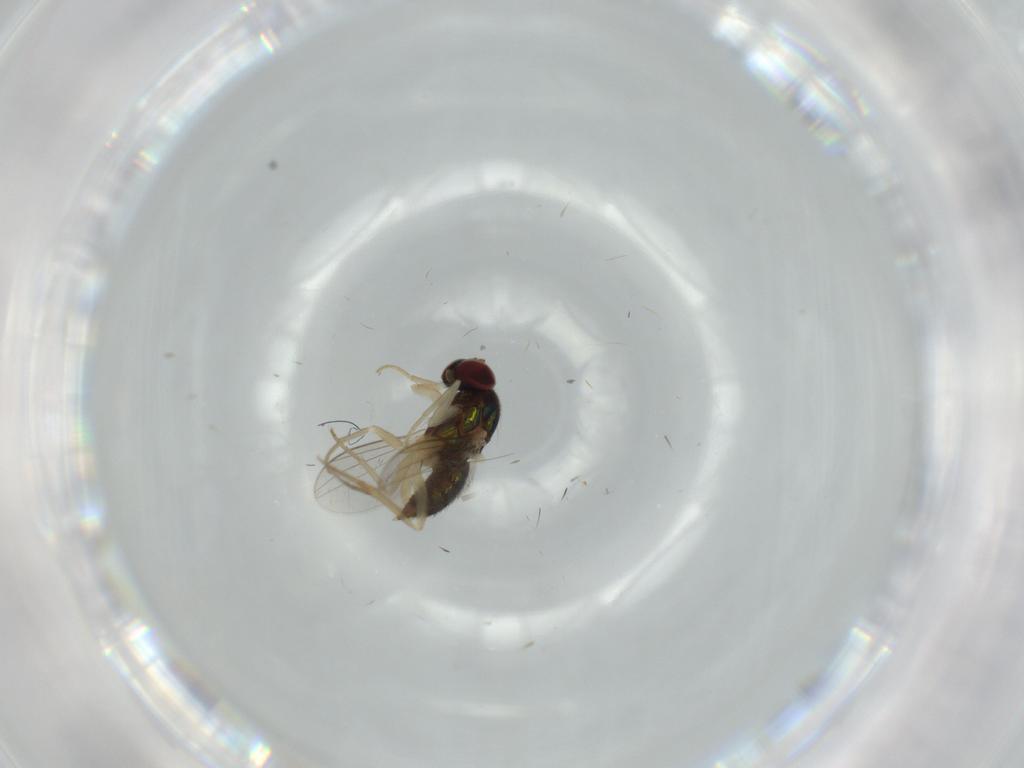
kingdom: Animalia
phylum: Arthropoda
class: Insecta
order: Diptera
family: Dolichopodidae
